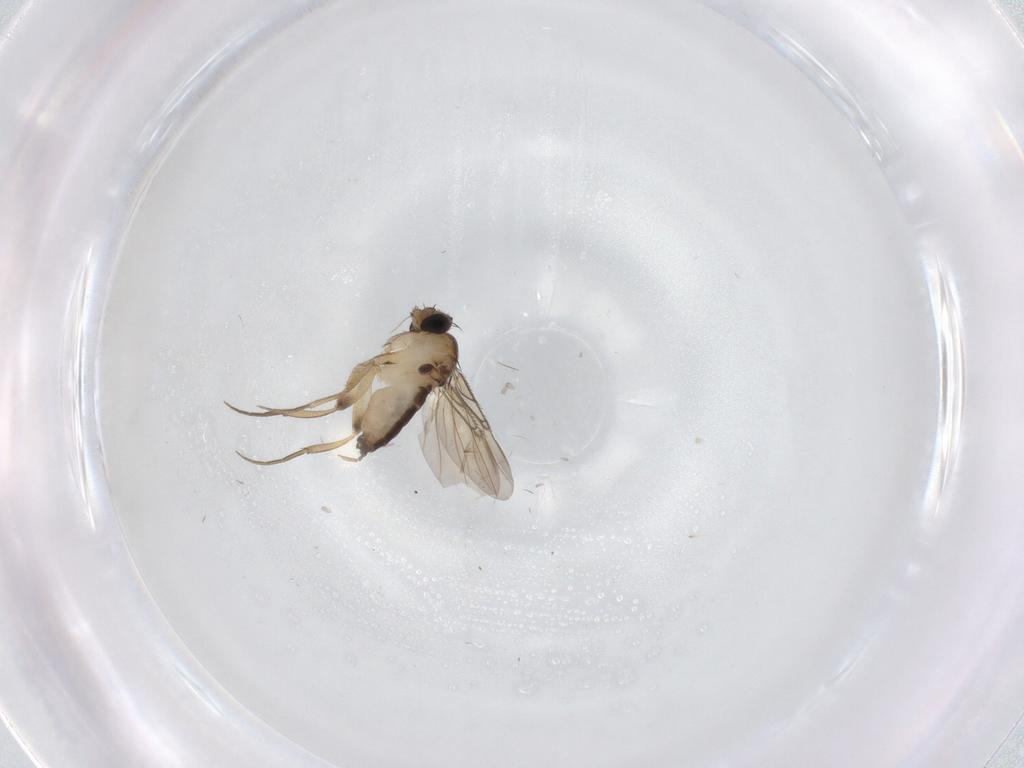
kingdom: Animalia
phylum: Arthropoda
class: Insecta
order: Diptera
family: Phoridae
